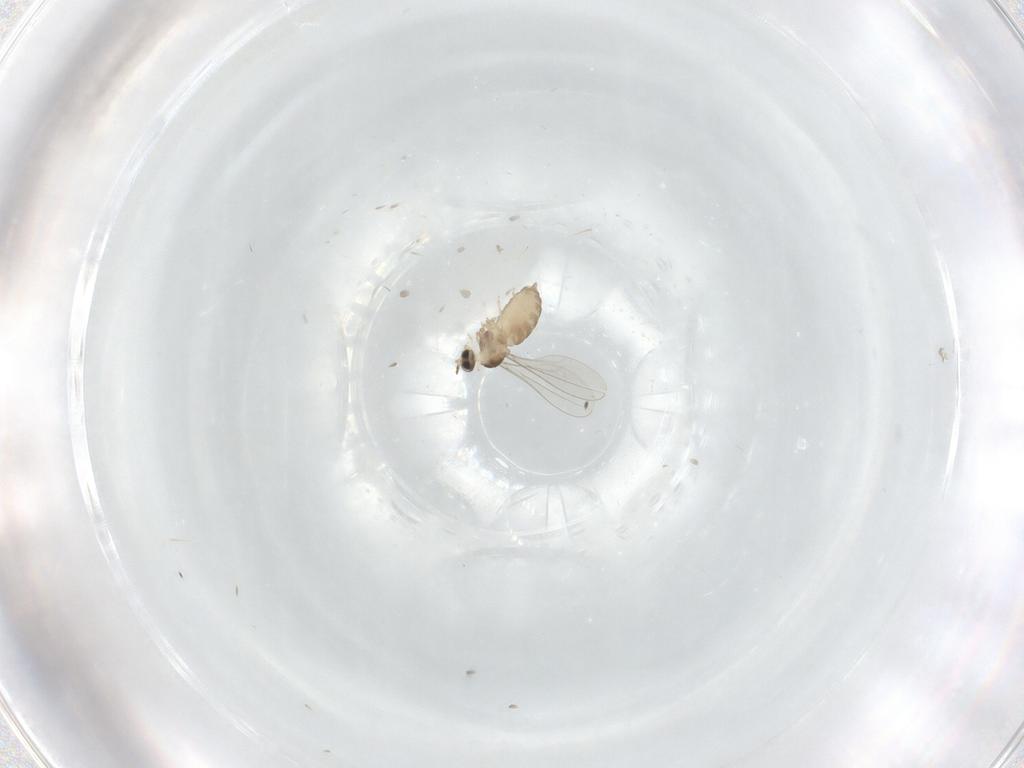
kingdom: Animalia
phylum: Arthropoda
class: Insecta
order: Diptera
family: Cecidomyiidae
